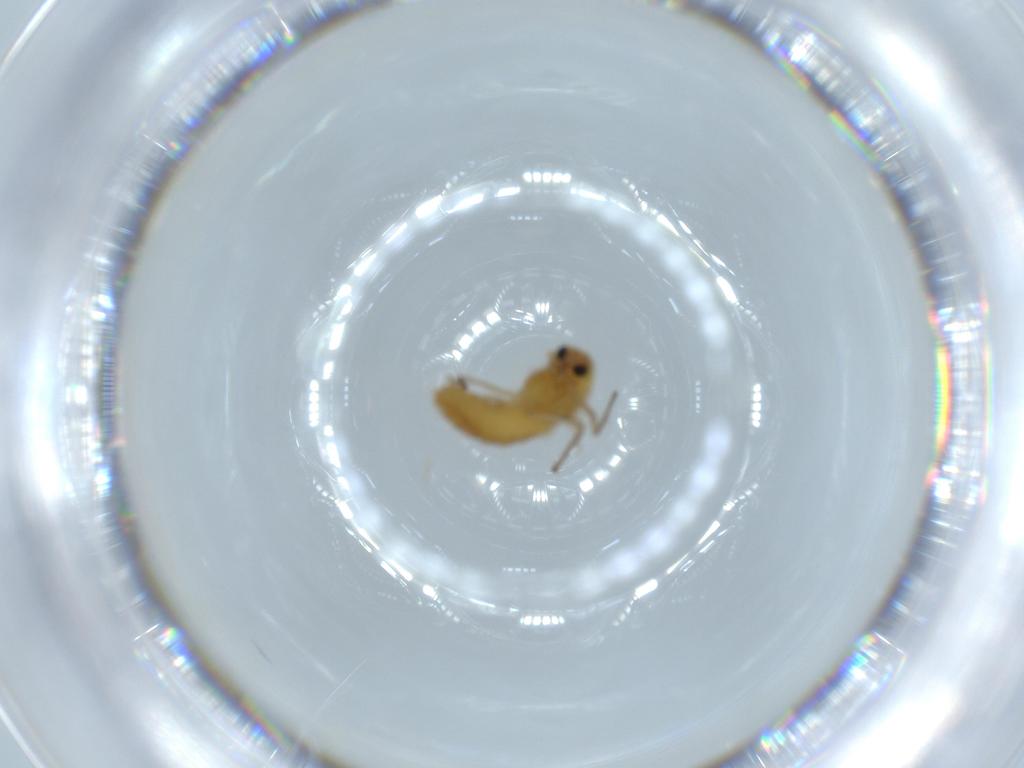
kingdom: Animalia
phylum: Arthropoda
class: Insecta
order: Diptera
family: Chironomidae
